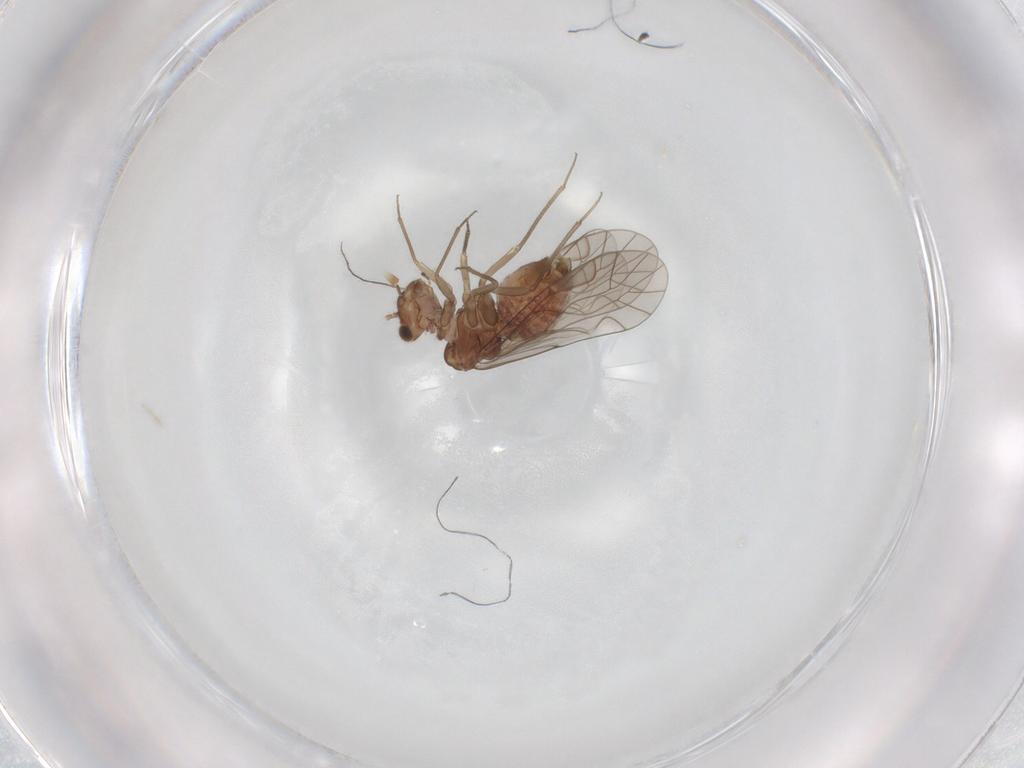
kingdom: Animalia
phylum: Arthropoda
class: Insecta
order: Psocodea
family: Lachesillidae
